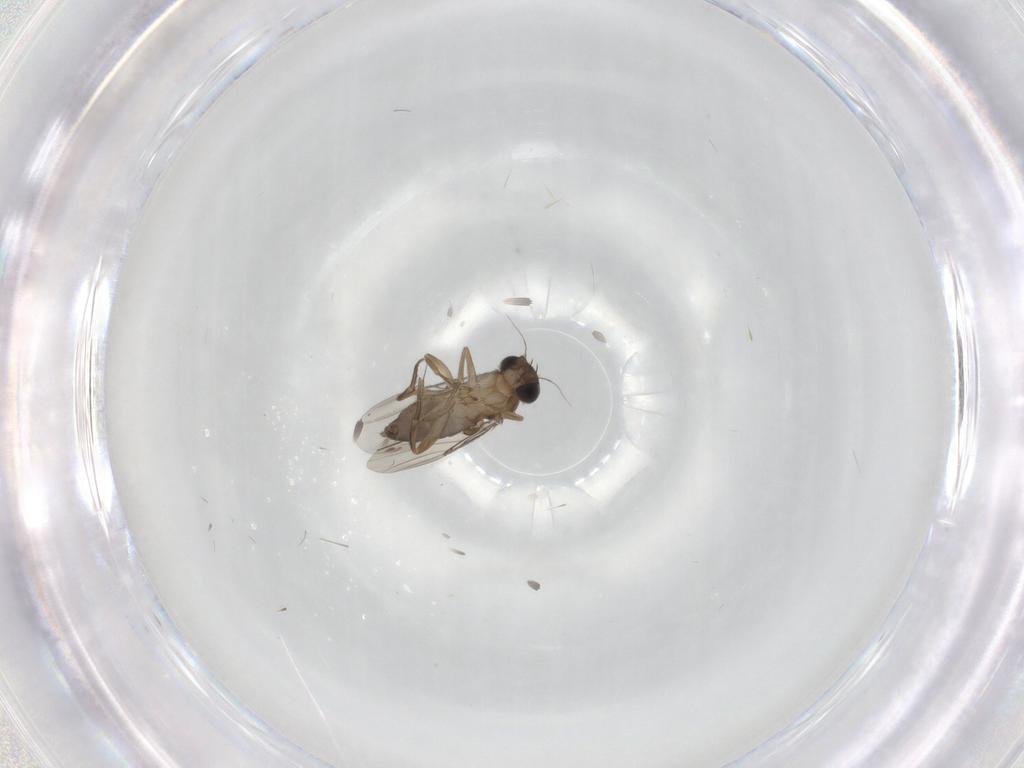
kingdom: Animalia
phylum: Arthropoda
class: Insecta
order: Diptera
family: Phoridae
